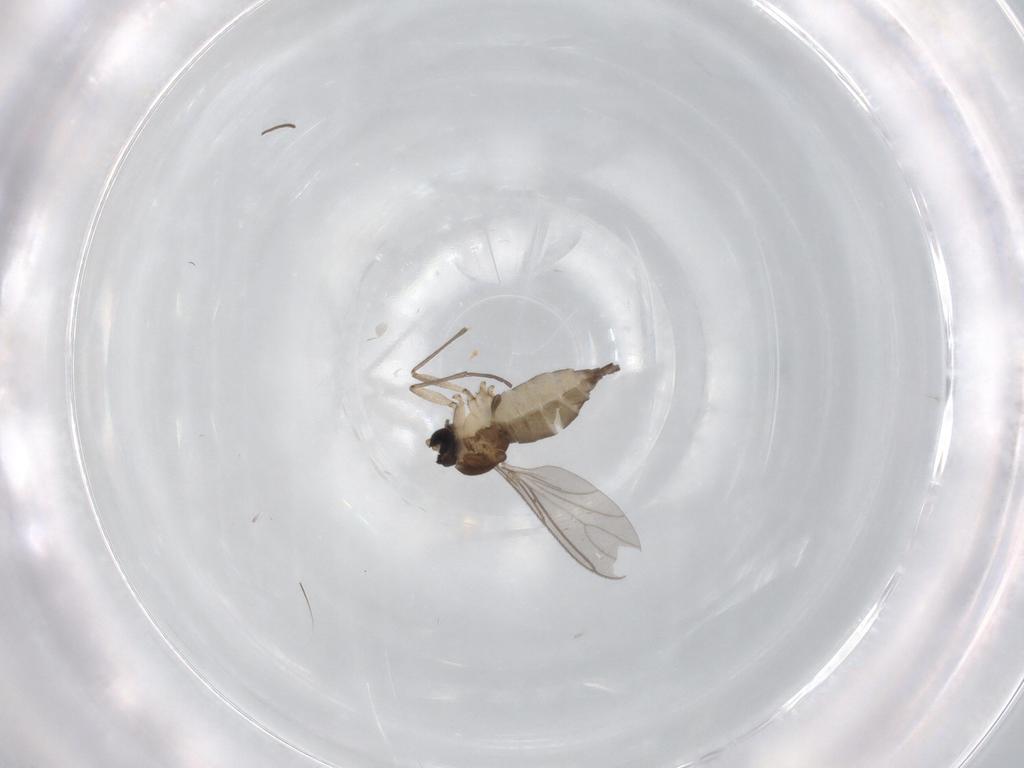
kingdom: Animalia
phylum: Arthropoda
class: Insecta
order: Diptera
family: Sciaridae
